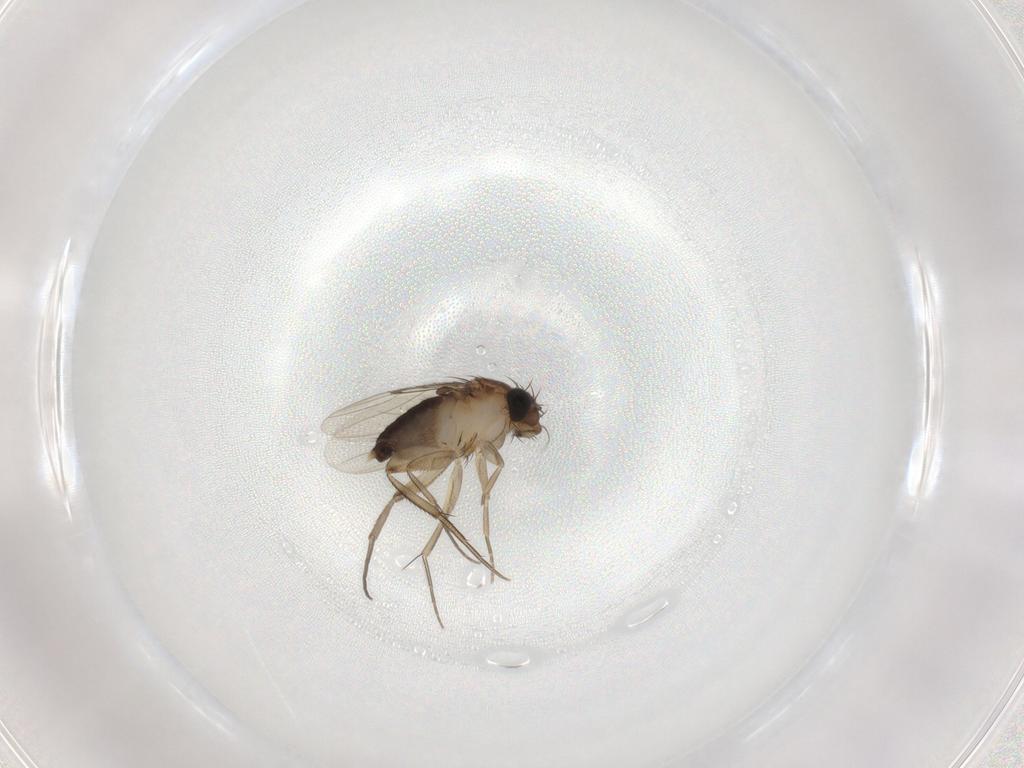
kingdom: Animalia
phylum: Arthropoda
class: Insecta
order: Diptera
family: Phoridae
